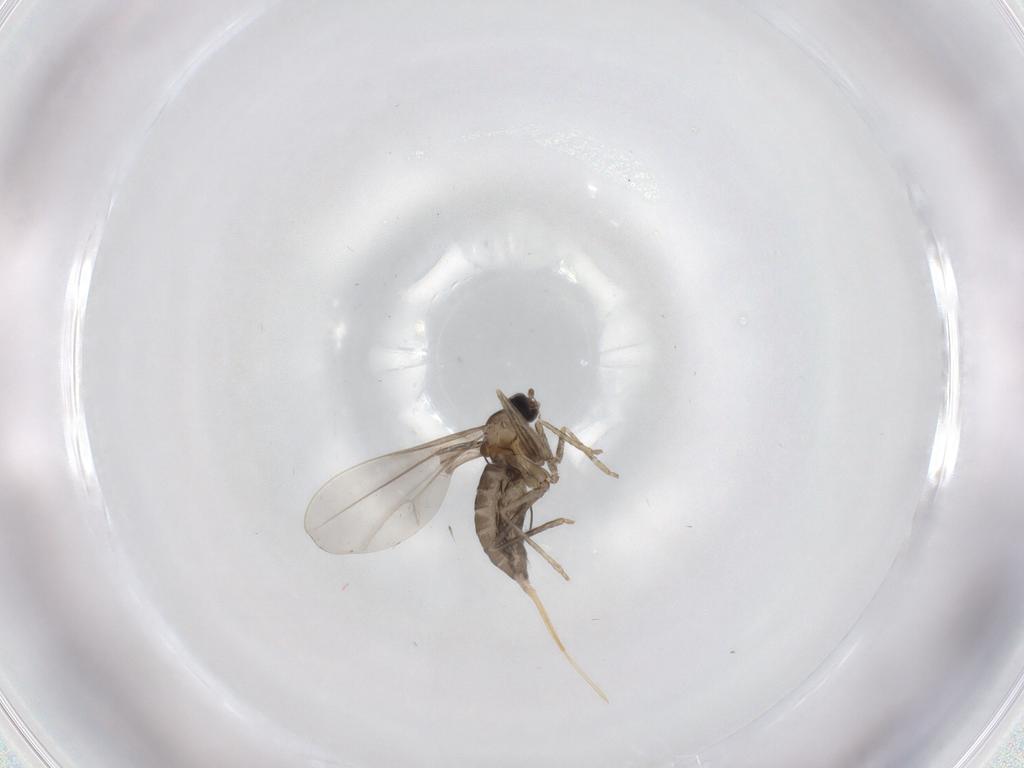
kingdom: Animalia
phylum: Arthropoda
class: Insecta
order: Diptera
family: Cecidomyiidae
